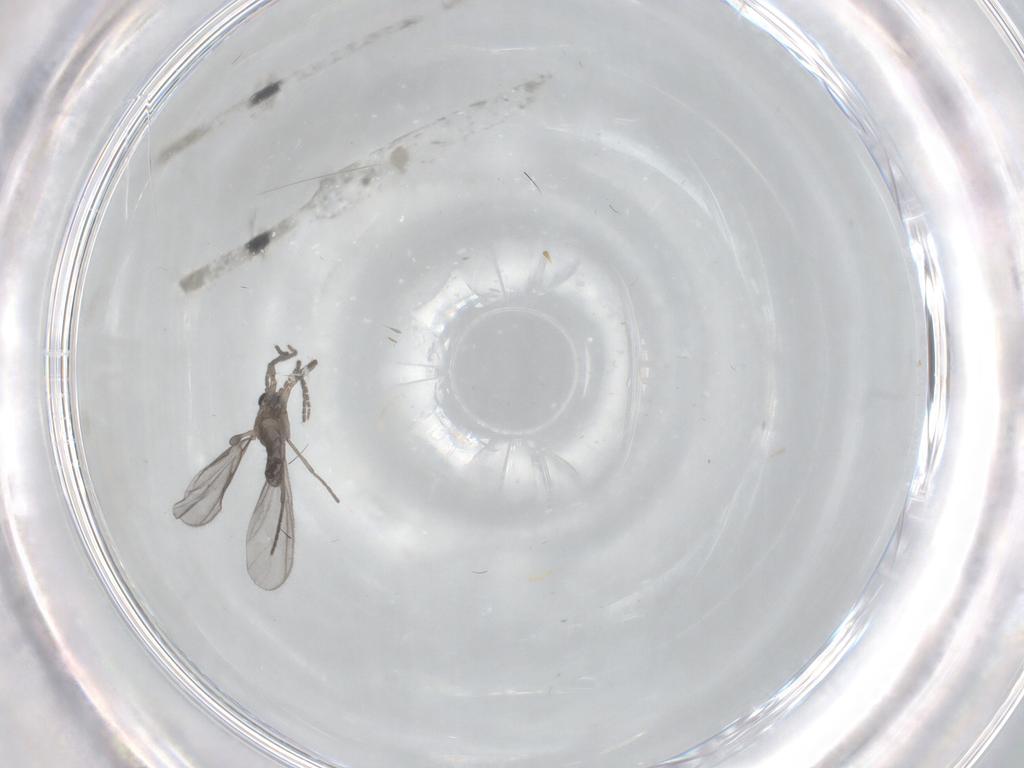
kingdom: Animalia
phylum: Arthropoda
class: Insecta
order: Diptera
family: Sciaridae
